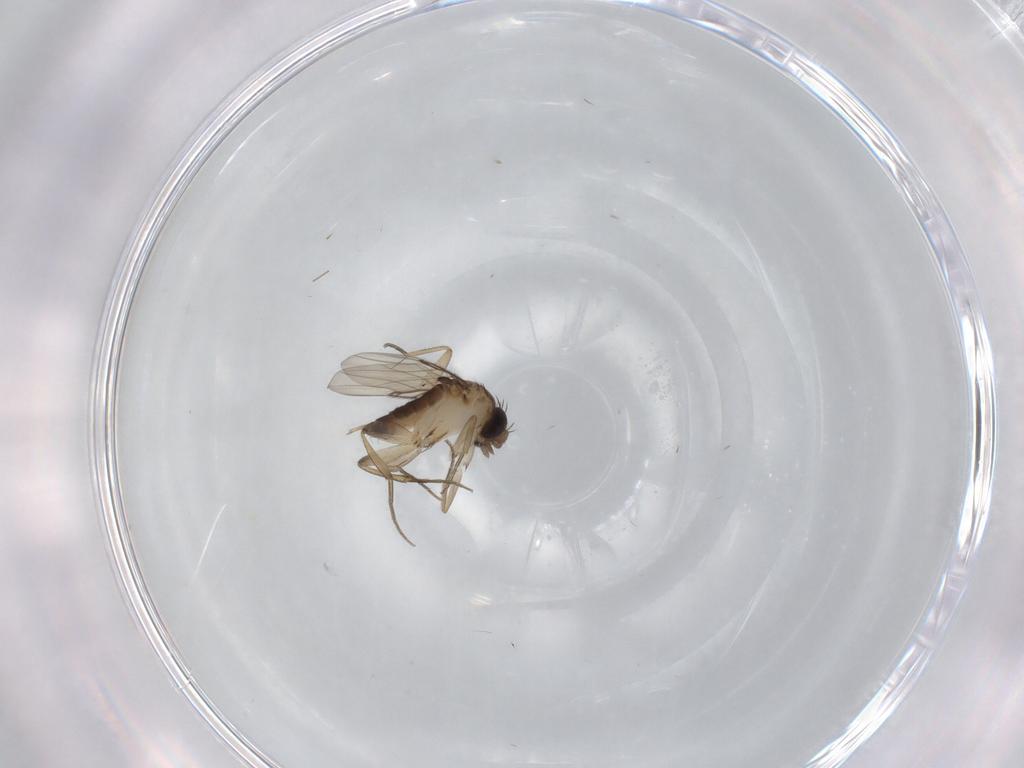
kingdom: Animalia
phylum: Arthropoda
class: Insecta
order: Diptera
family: Phoridae
